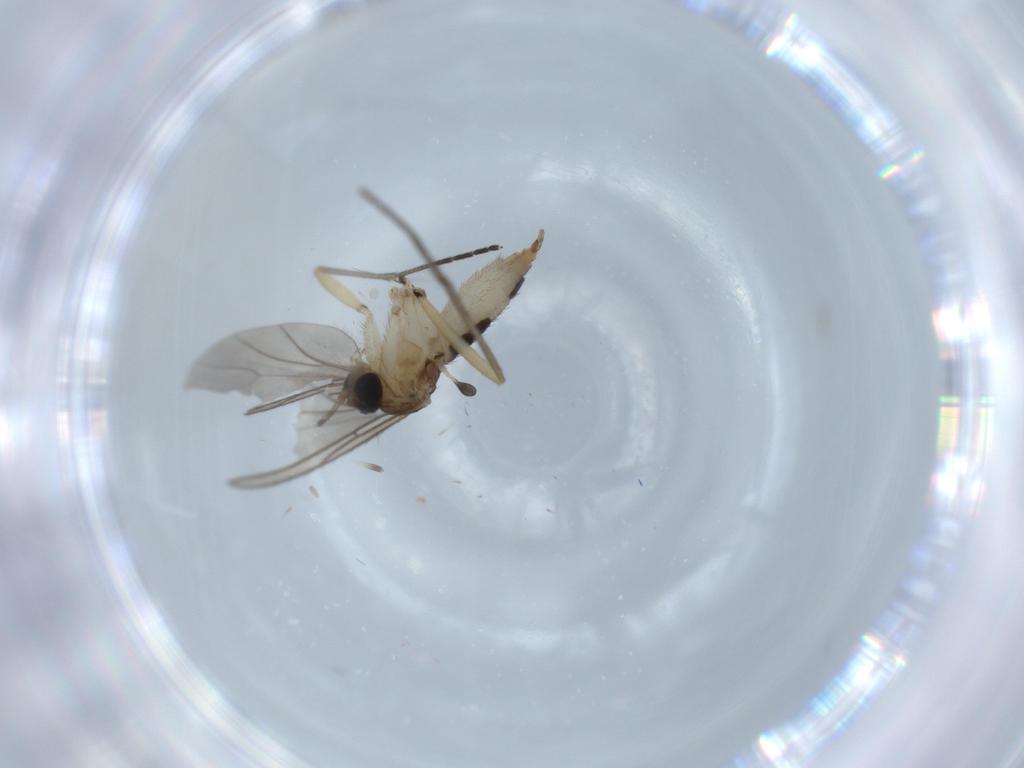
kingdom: Animalia
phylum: Arthropoda
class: Insecta
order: Diptera
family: Sciaridae
